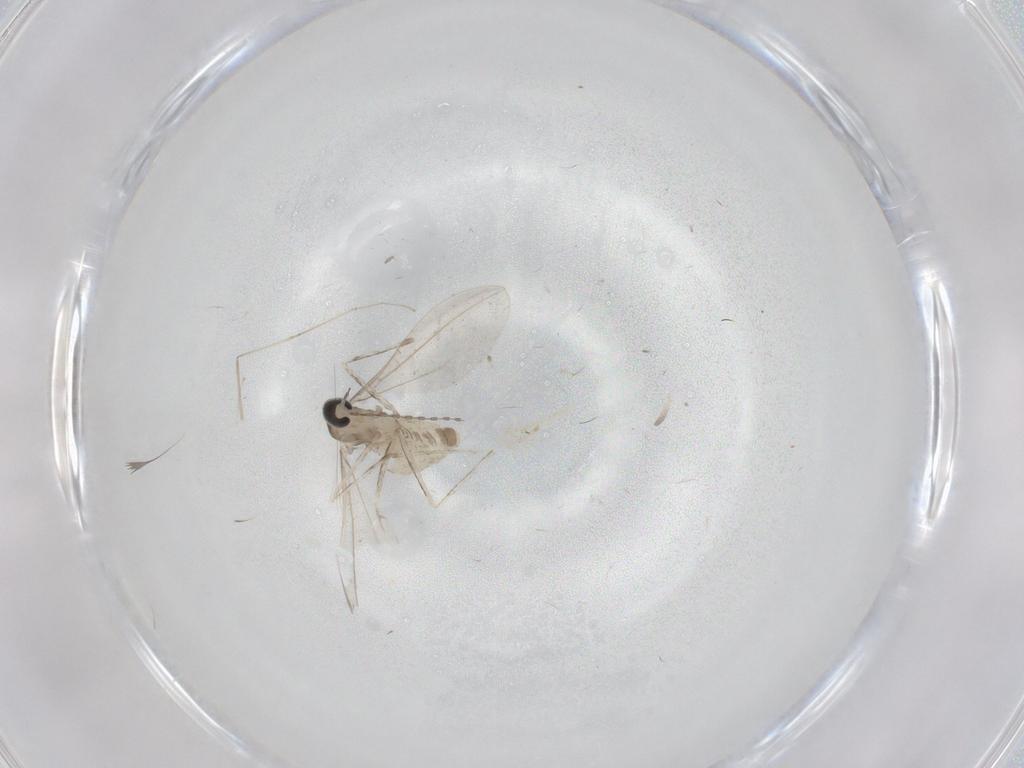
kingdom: Animalia
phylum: Arthropoda
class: Insecta
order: Diptera
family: Cecidomyiidae
